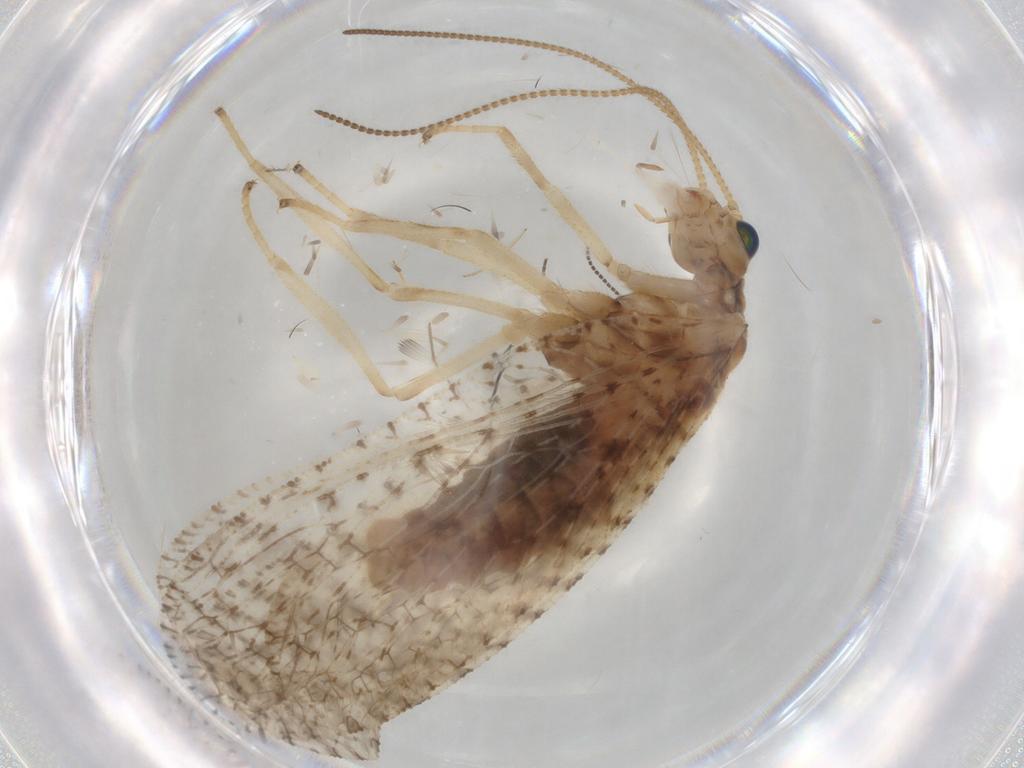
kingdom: Animalia
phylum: Arthropoda
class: Insecta
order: Neuroptera
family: Hemerobiidae
